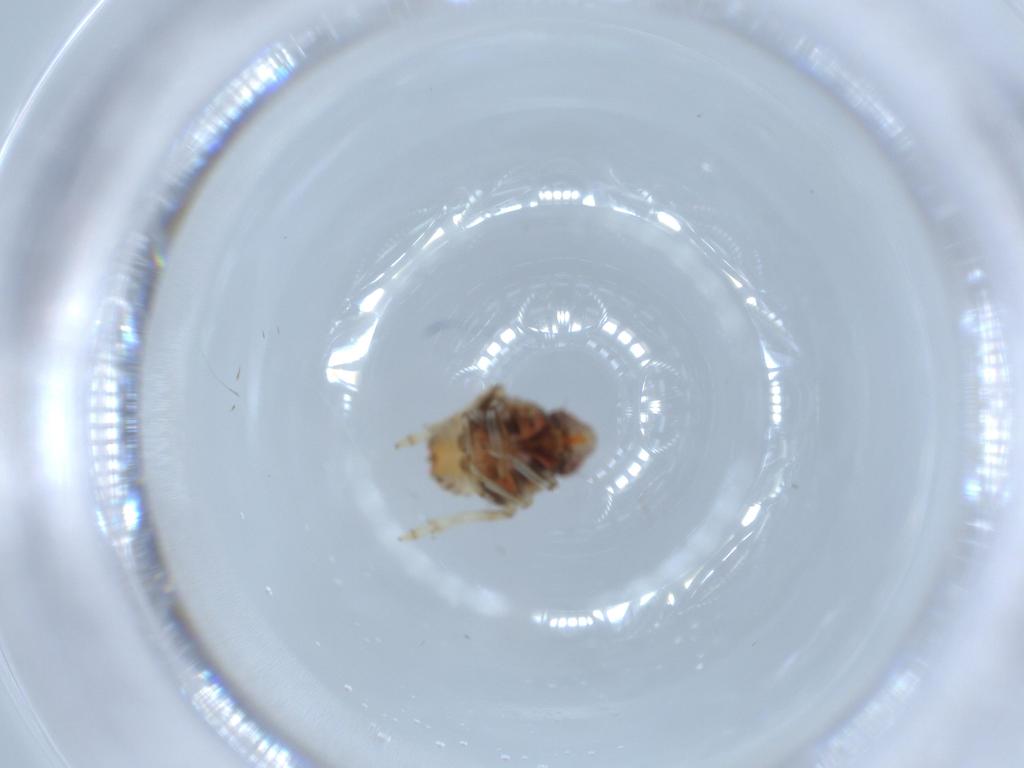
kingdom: Animalia
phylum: Arthropoda
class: Insecta
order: Hemiptera
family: Issidae
